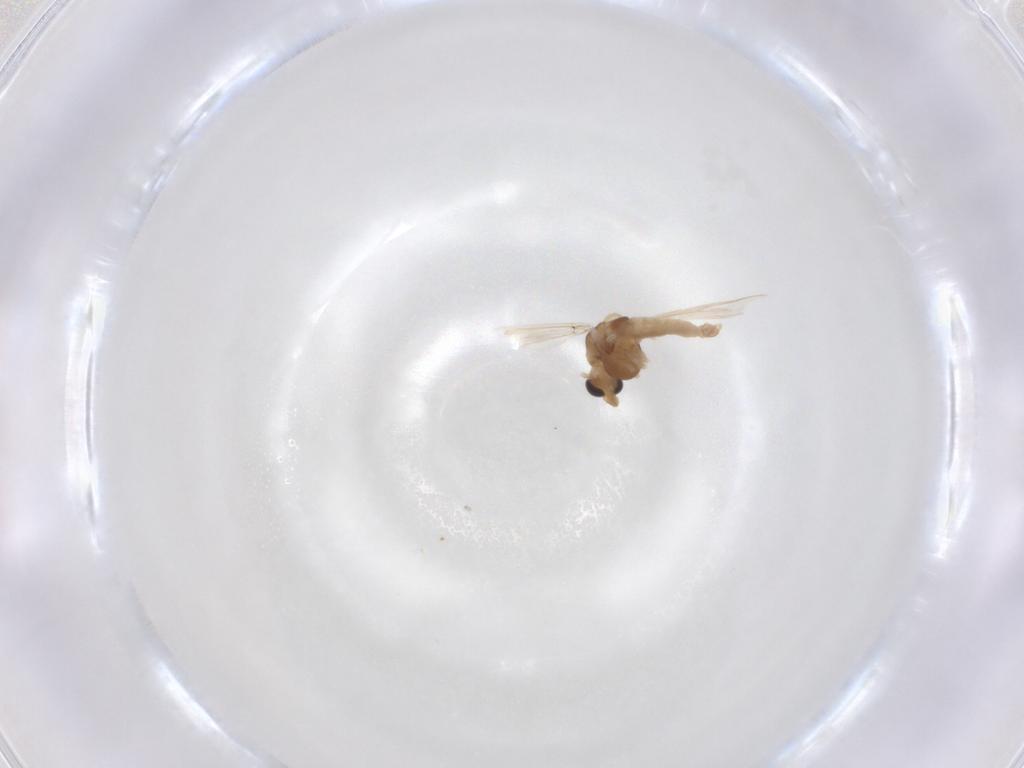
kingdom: Animalia
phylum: Arthropoda
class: Insecta
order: Diptera
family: Chironomidae
